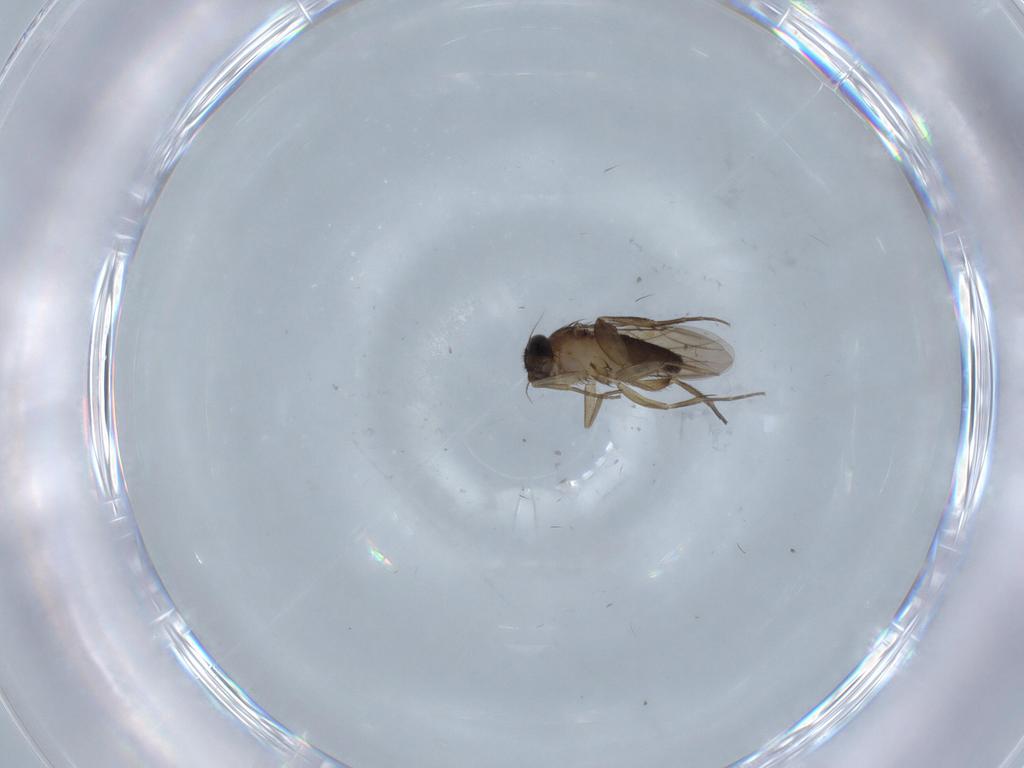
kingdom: Animalia
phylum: Arthropoda
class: Insecta
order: Diptera
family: Phoridae
